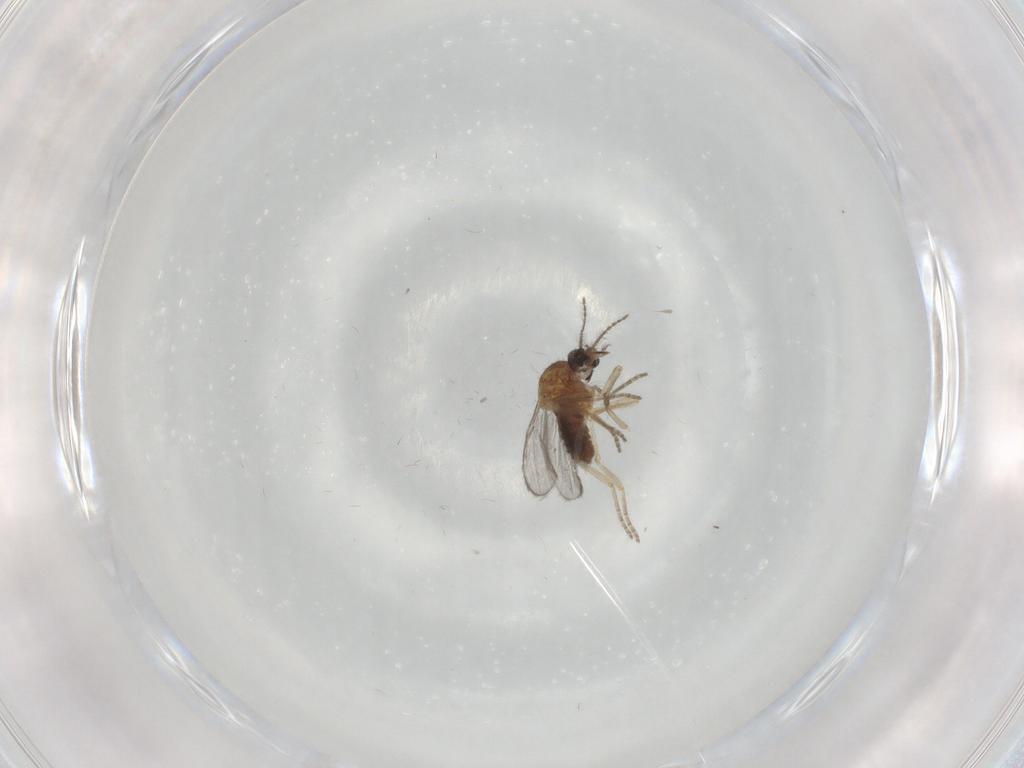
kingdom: Animalia
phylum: Arthropoda
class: Insecta
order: Diptera
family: Ceratopogonidae
